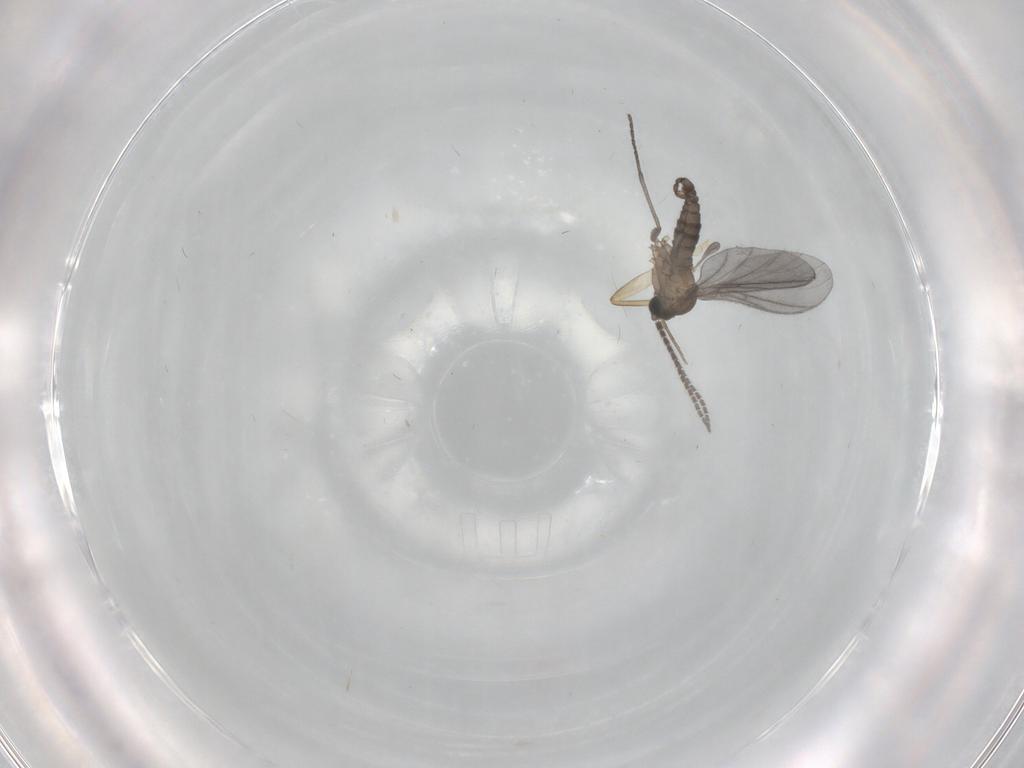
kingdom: Animalia
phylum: Arthropoda
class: Insecta
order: Diptera
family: Sciaridae
